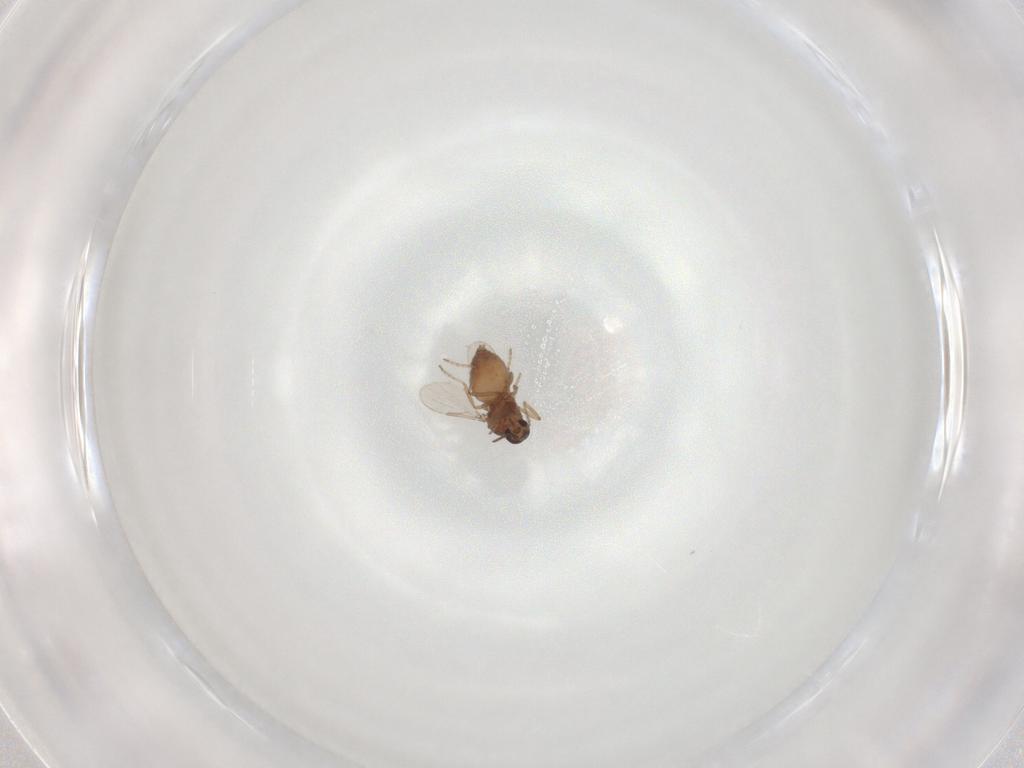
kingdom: Animalia
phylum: Arthropoda
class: Insecta
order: Diptera
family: Ceratopogonidae
